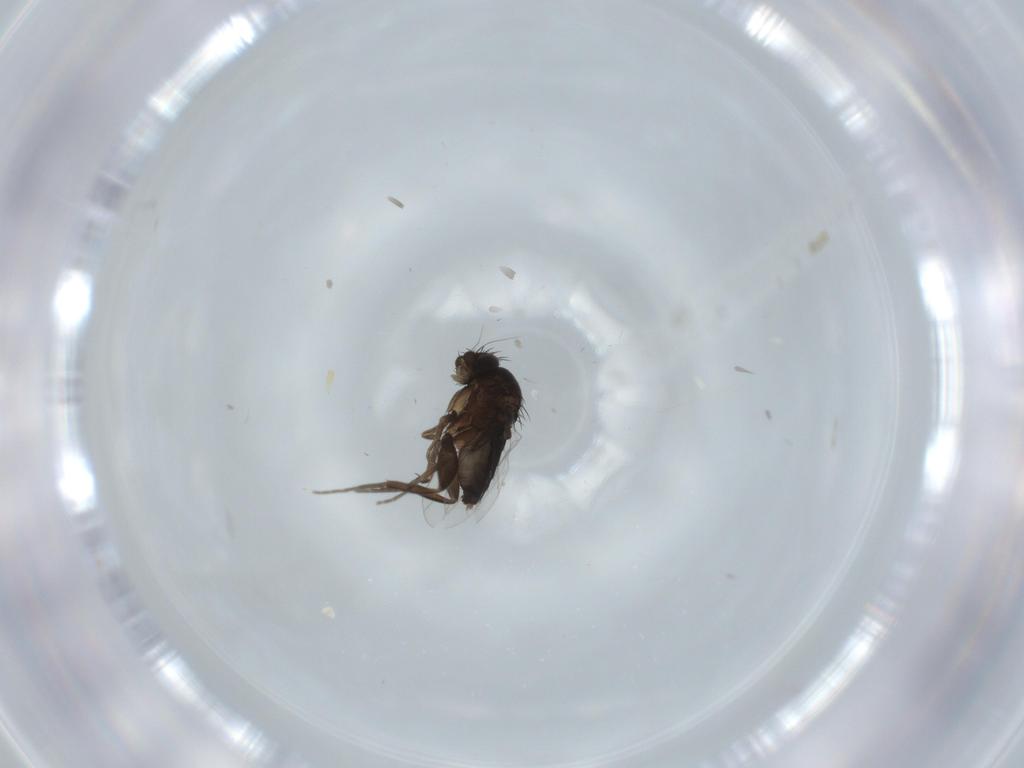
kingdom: Animalia
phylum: Arthropoda
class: Insecta
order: Diptera
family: Phoridae
